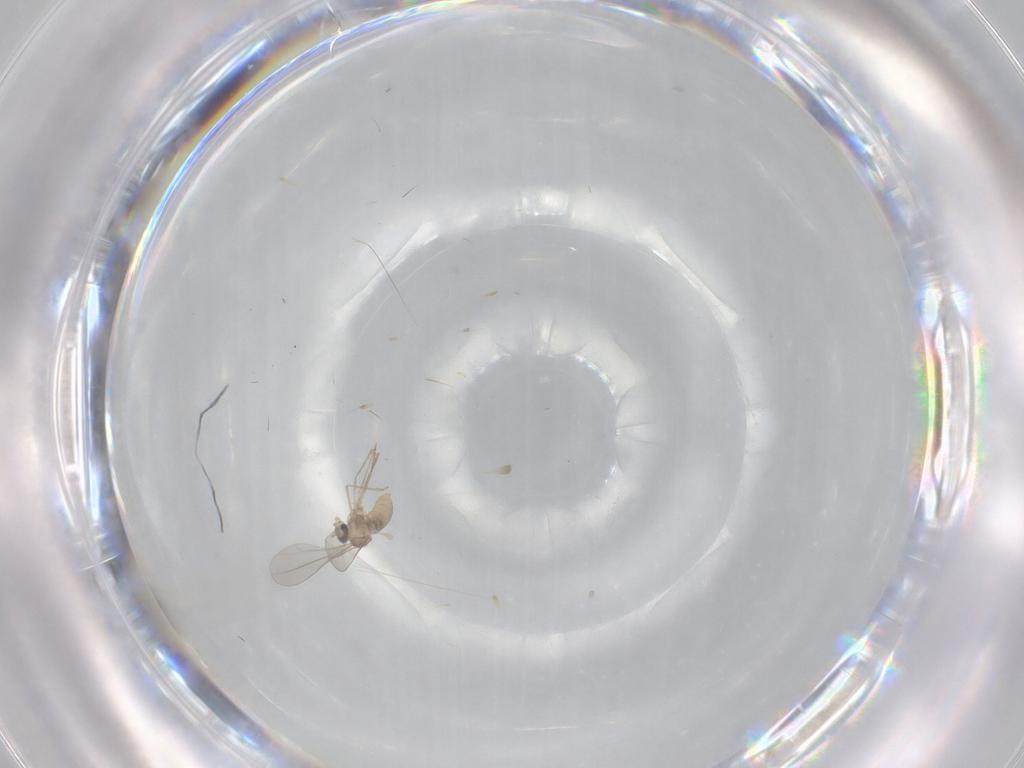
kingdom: Animalia
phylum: Arthropoda
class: Insecta
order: Diptera
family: Cecidomyiidae
